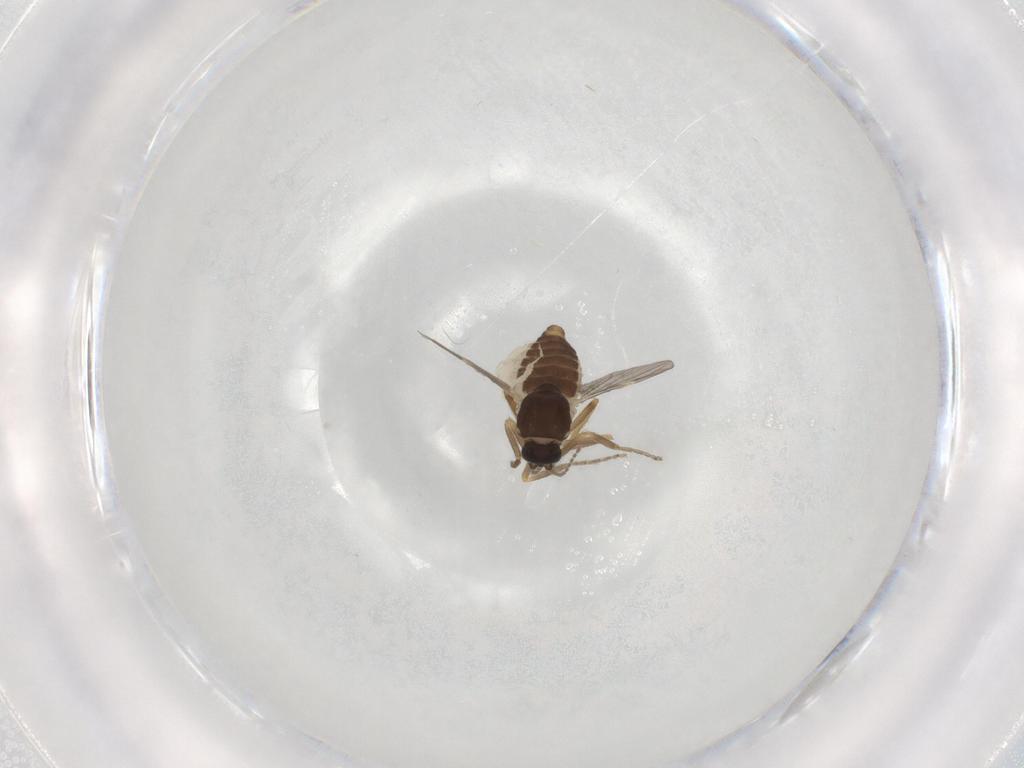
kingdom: Animalia
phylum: Arthropoda
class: Insecta
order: Diptera
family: Ceratopogonidae
